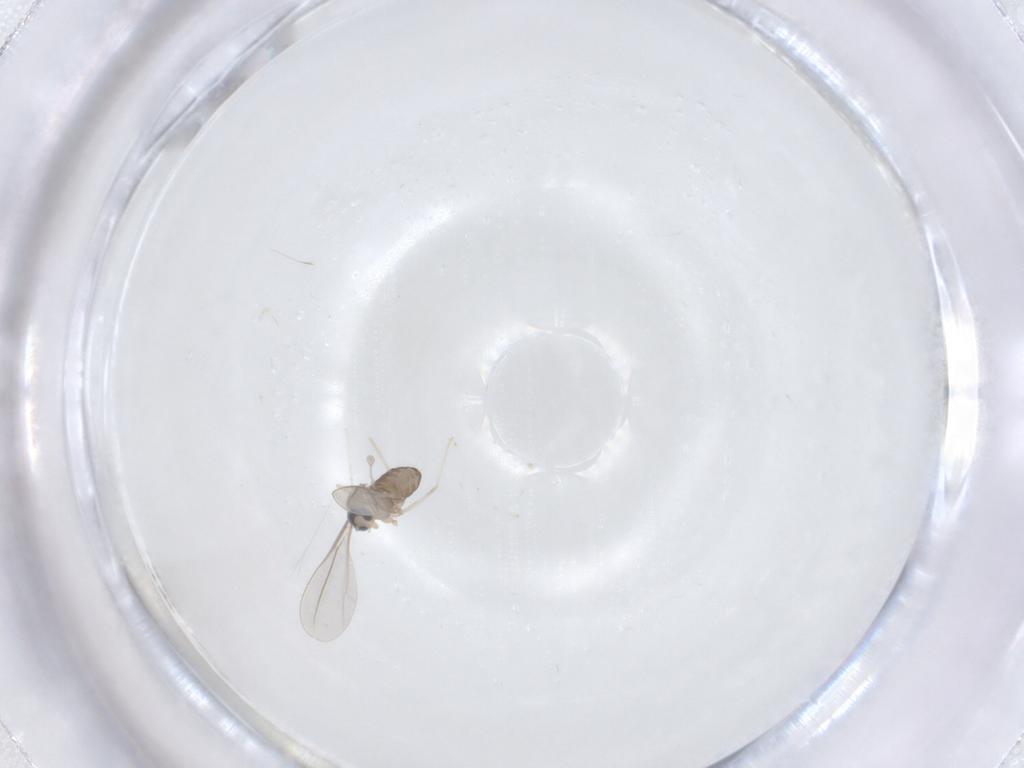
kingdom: Animalia
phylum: Arthropoda
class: Insecta
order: Diptera
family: Cecidomyiidae
